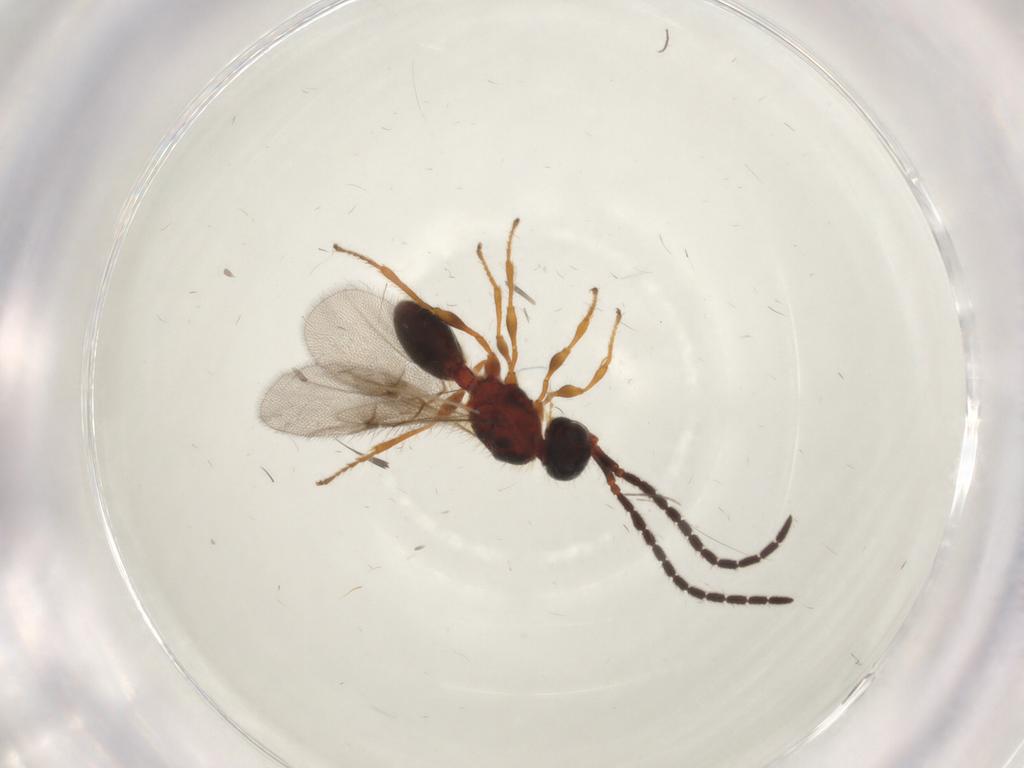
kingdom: Animalia
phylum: Arthropoda
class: Insecta
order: Hymenoptera
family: Diapriidae
